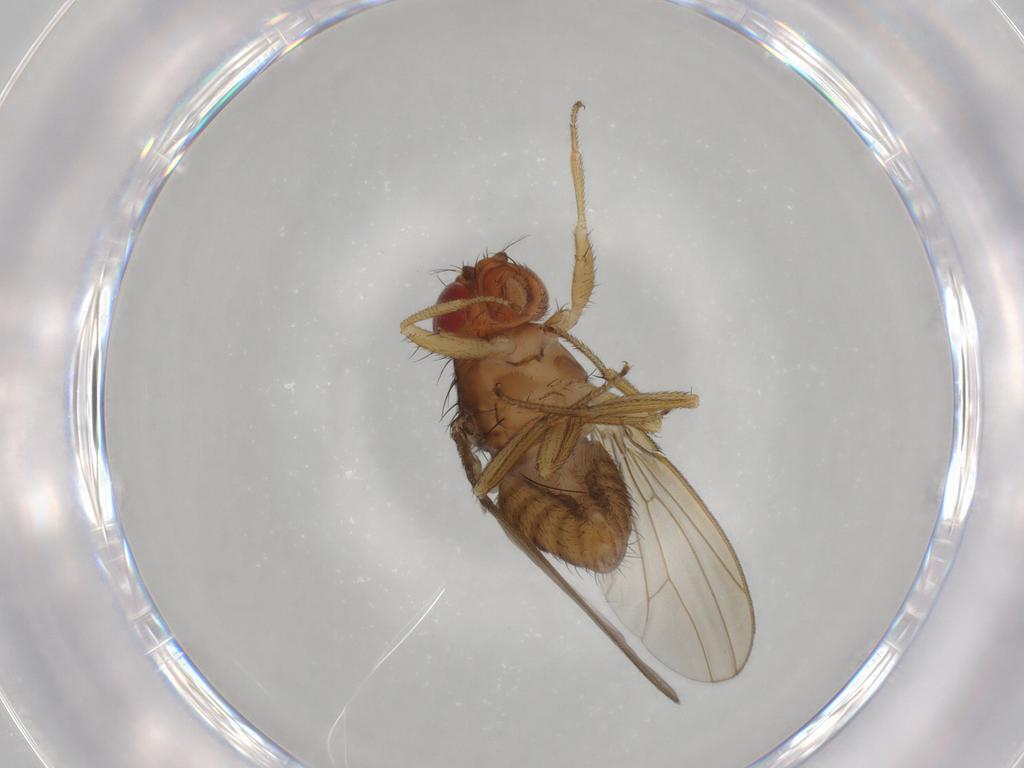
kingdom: Animalia
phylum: Arthropoda
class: Insecta
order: Diptera
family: Drosophilidae
